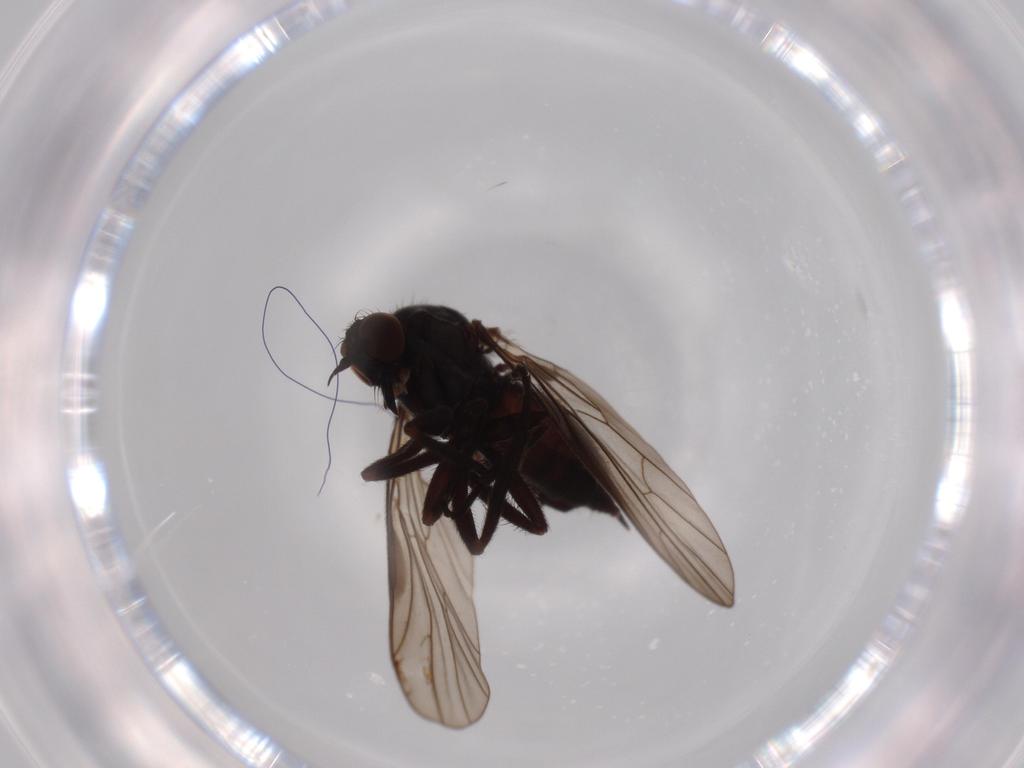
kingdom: Animalia
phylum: Arthropoda
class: Insecta
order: Diptera
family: Empididae
